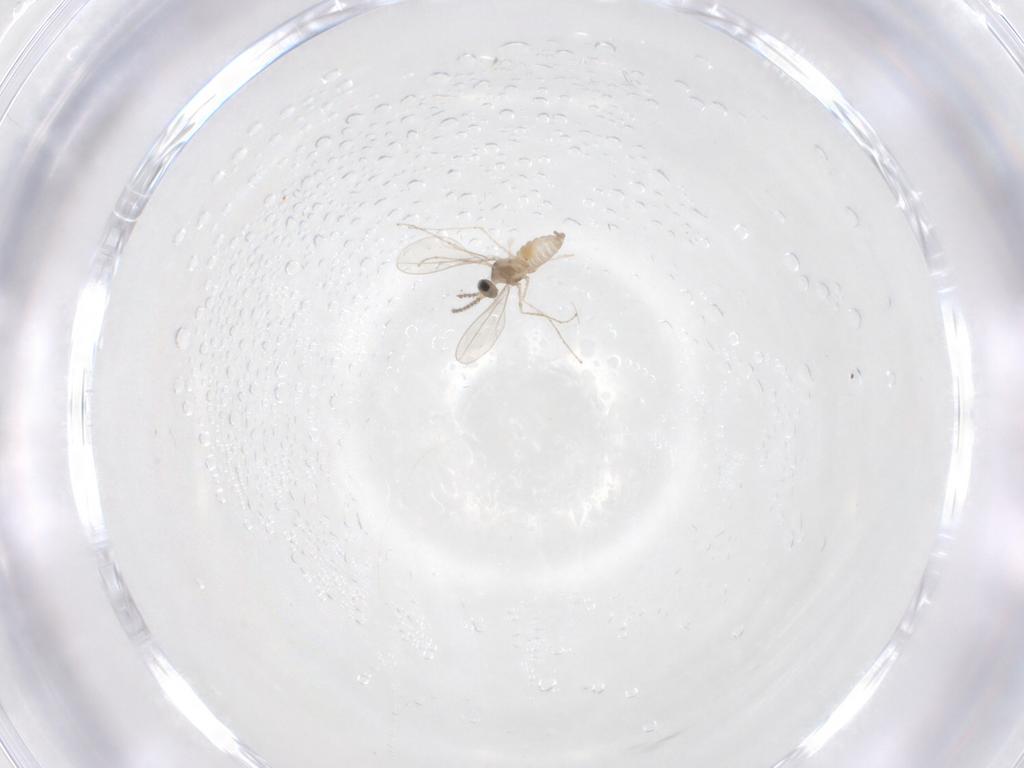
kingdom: Animalia
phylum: Arthropoda
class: Insecta
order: Diptera
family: Cecidomyiidae
